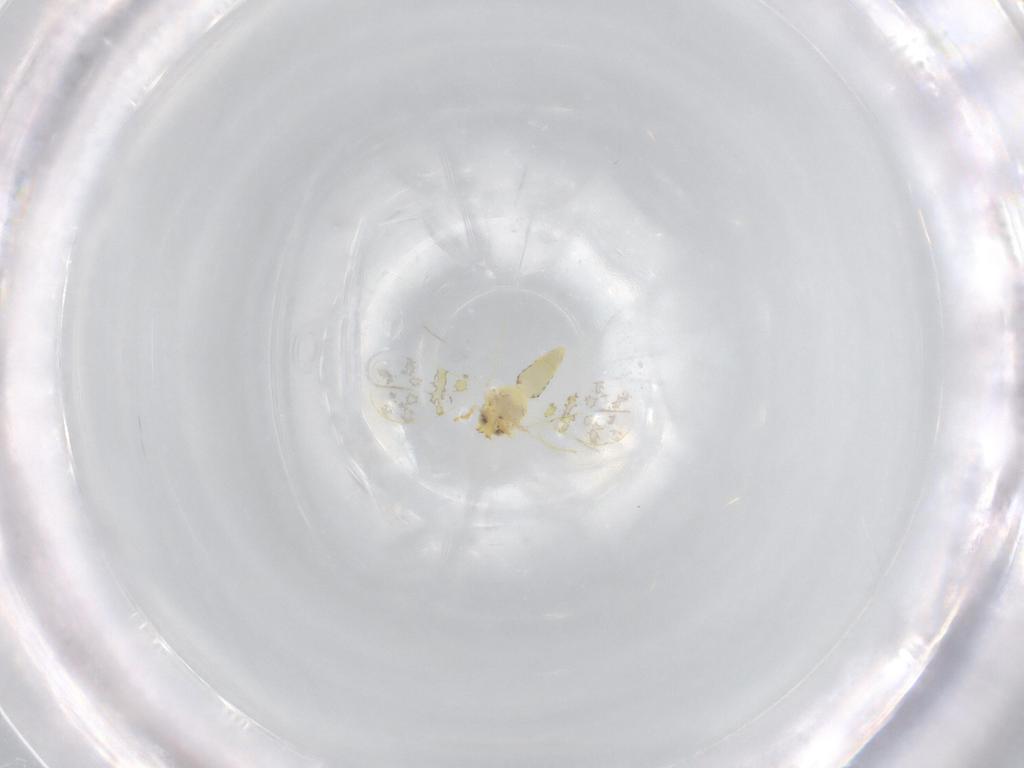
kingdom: Animalia
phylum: Arthropoda
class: Insecta
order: Hemiptera
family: Aleyrodidae
